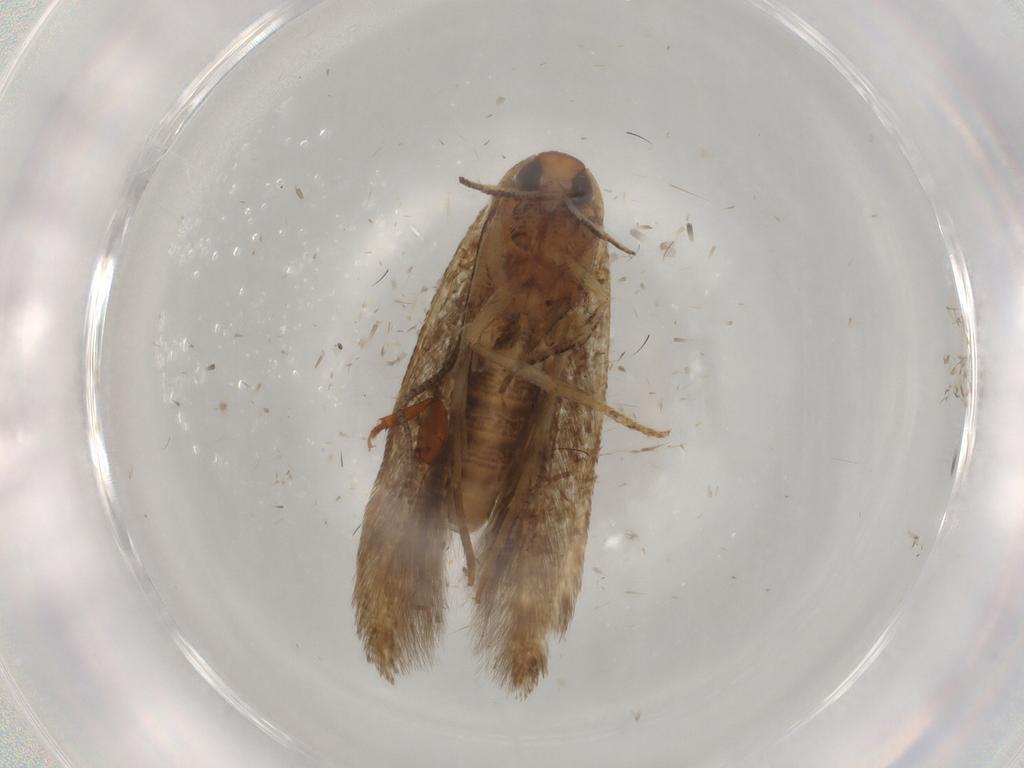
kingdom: Animalia
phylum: Arthropoda
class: Insecta
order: Lepidoptera
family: Cosmopterigidae
